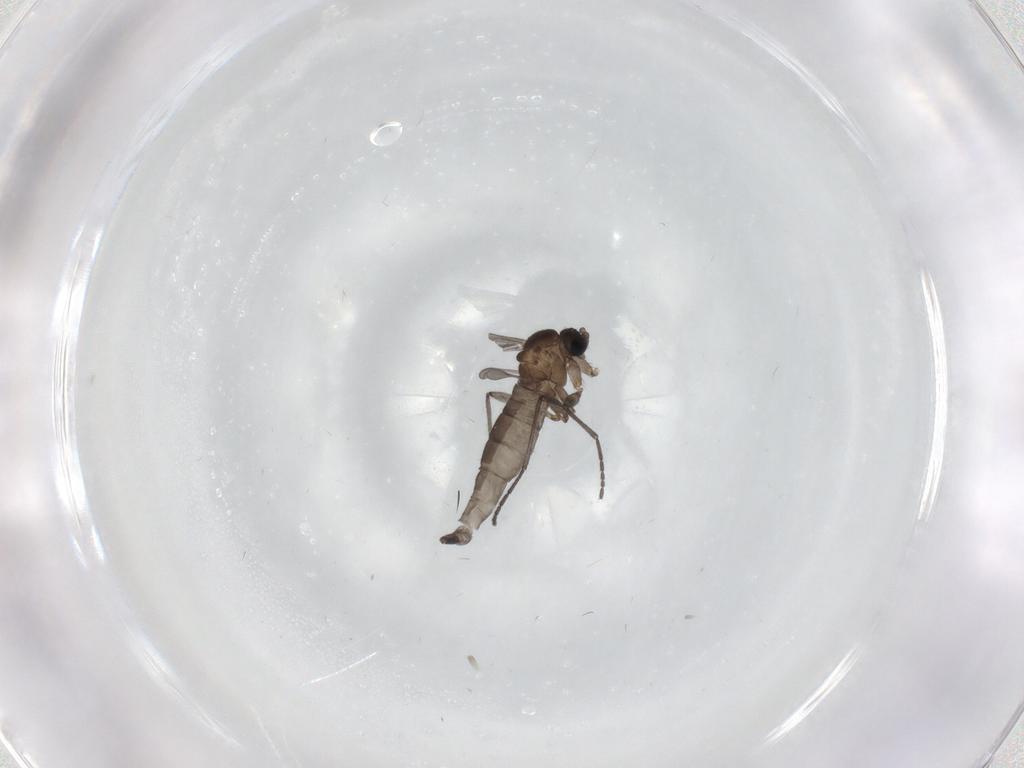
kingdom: Animalia
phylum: Arthropoda
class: Insecta
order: Diptera
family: Sciaridae
